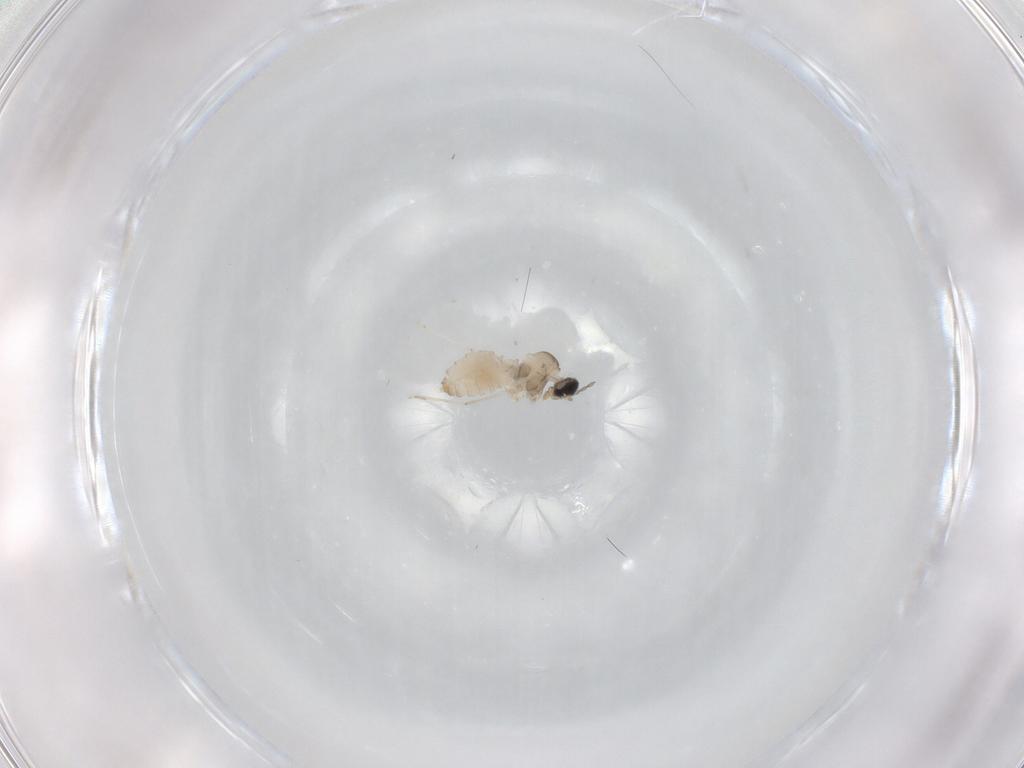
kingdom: Animalia
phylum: Arthropoda
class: Insecta
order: Diptera
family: Cecidomyiidae
